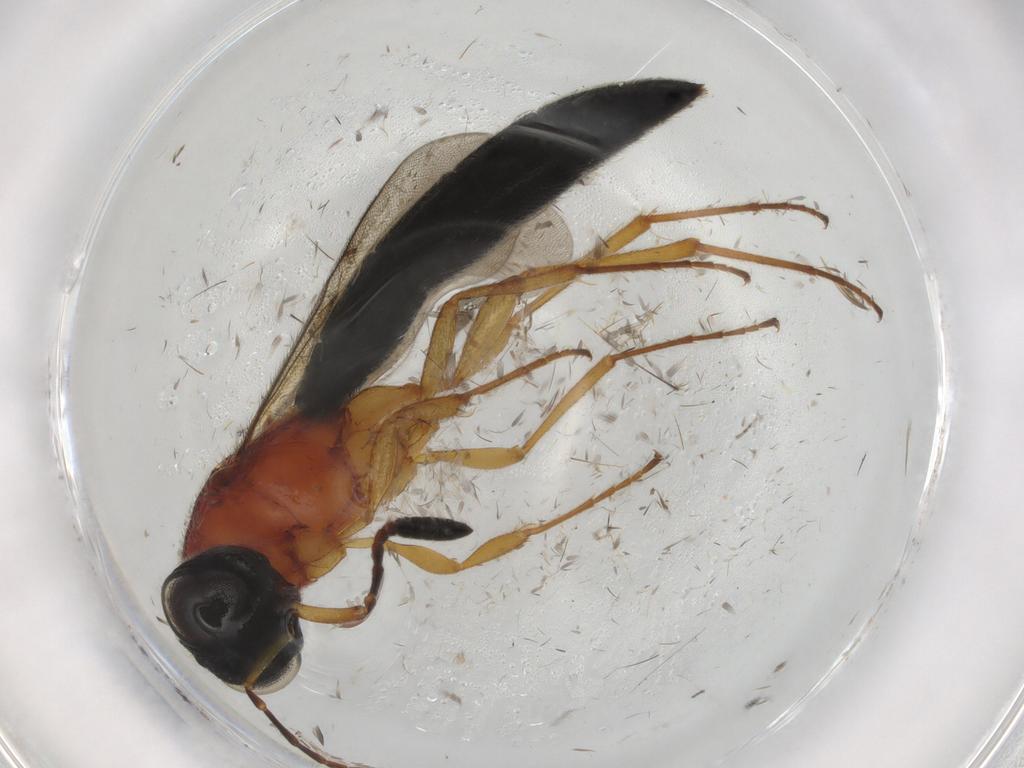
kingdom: Animalia
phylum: Arthropoda
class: Insecta
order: Hymenoptera
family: Scelionidae
